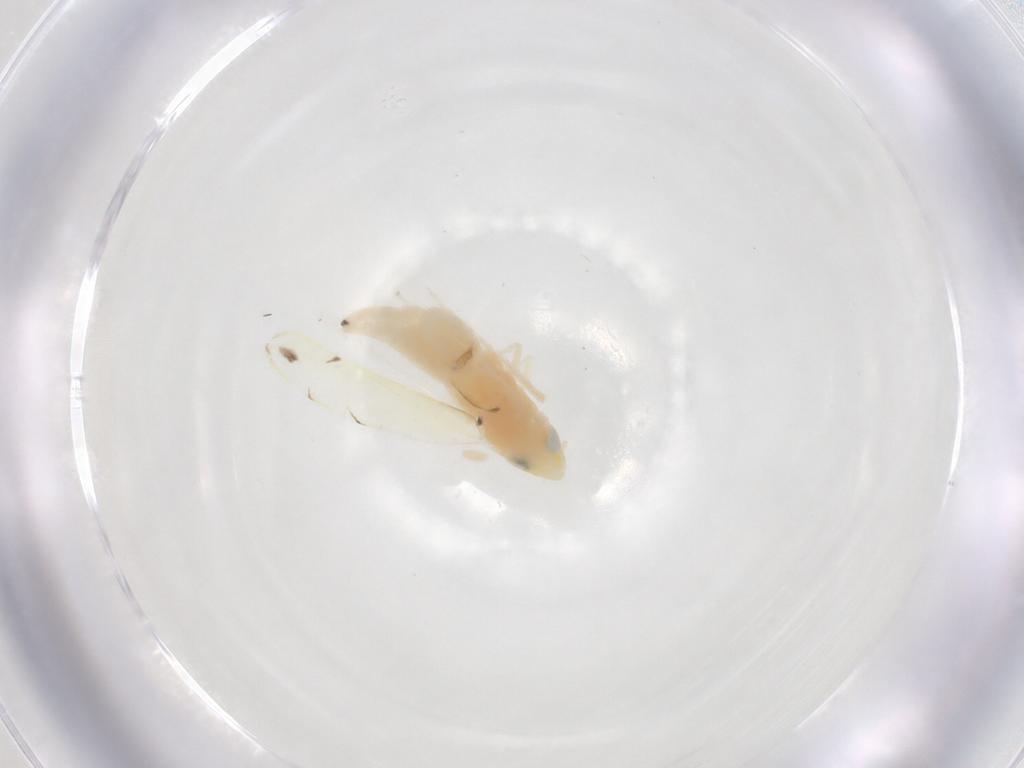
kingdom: Animalia
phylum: Arthropoda
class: Insecta
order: Hemiptera
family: Cicadellidae
